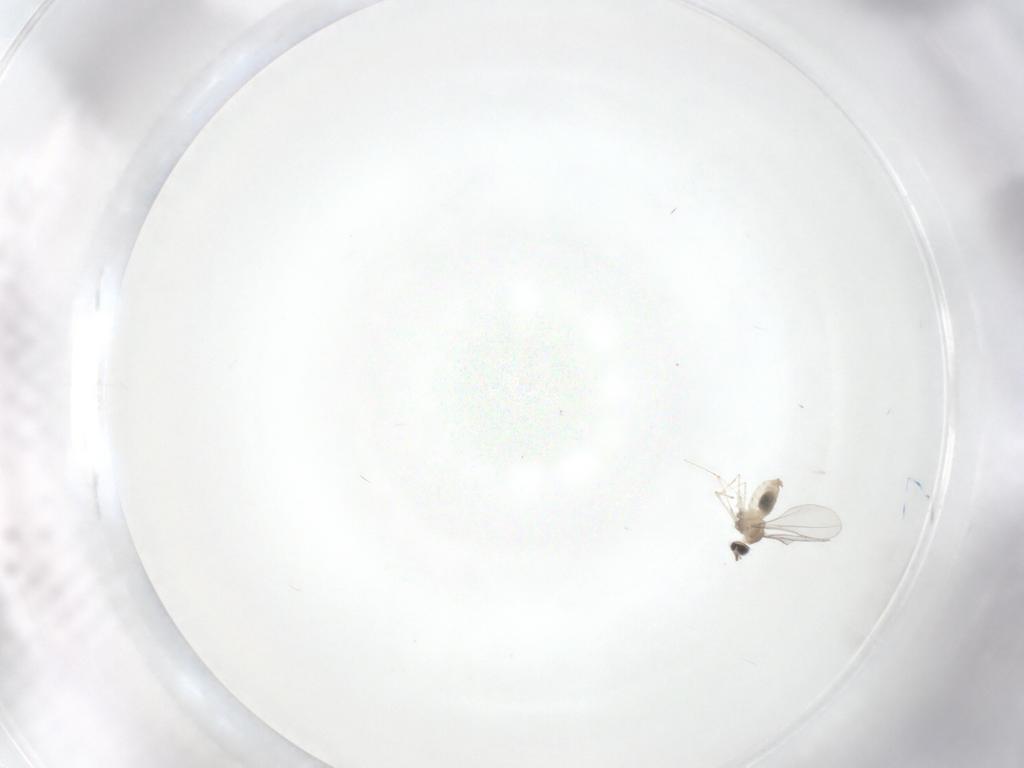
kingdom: Animalia
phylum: Arthropoda
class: Insecta
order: Diptera
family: Cecidomyiidae
